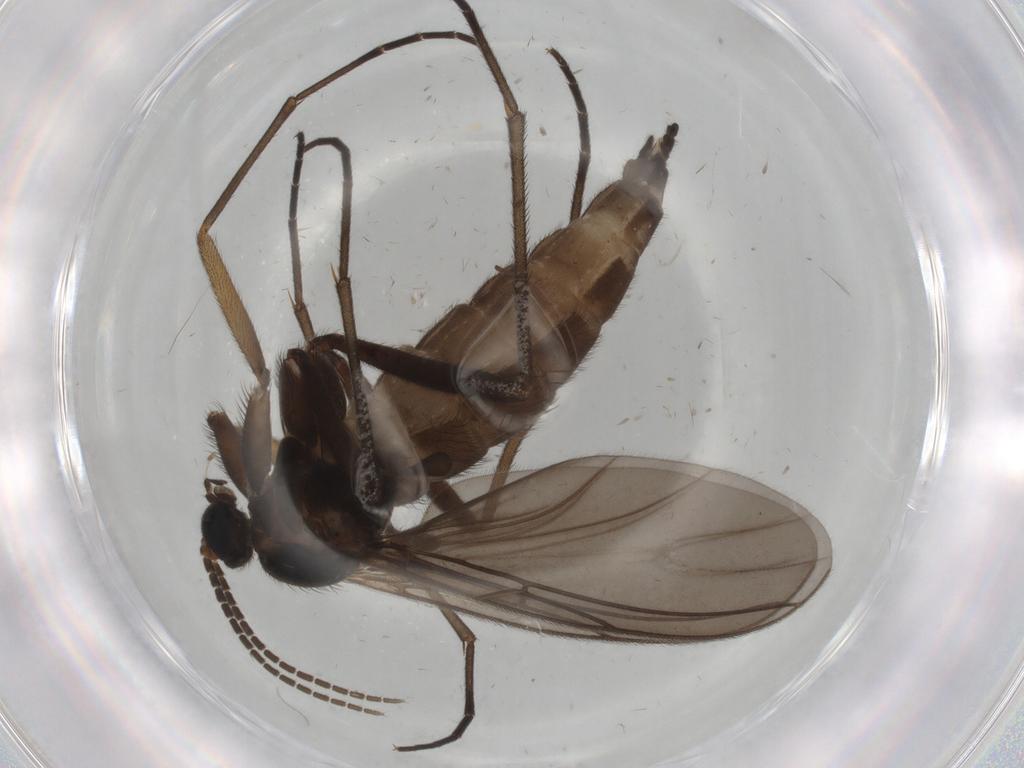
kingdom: Animalia
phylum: Arthropoda
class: Insecta
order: Diptera
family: Sciaridae
